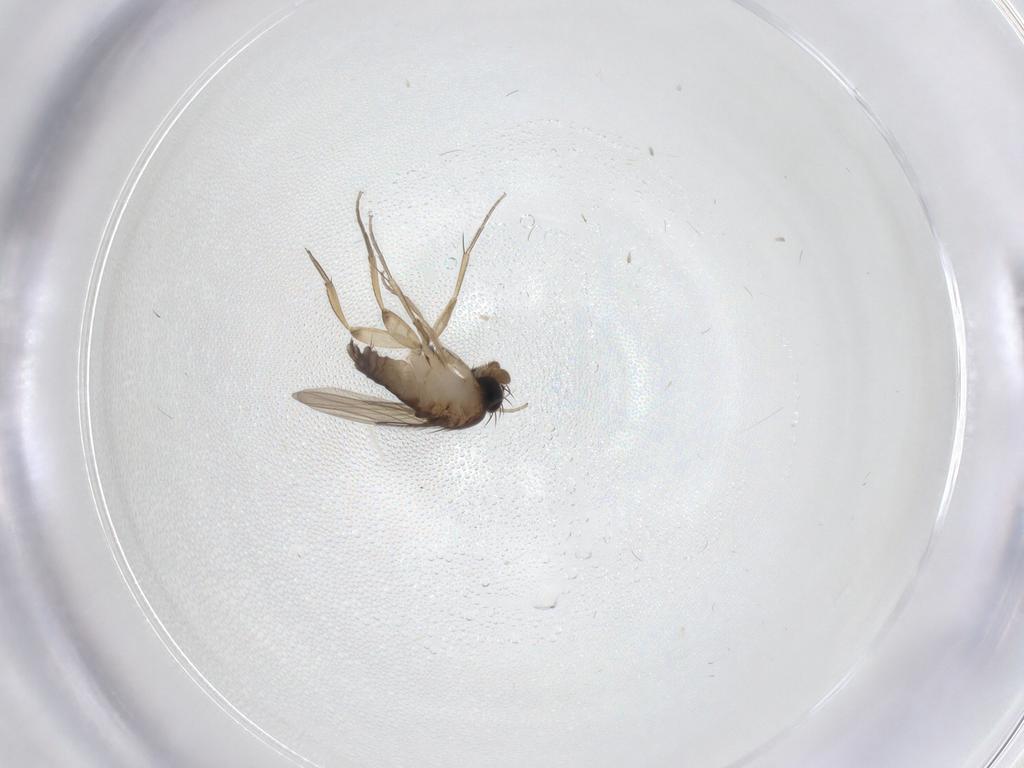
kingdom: Animalia
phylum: Arthropoda
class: Insecta
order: Diptera
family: Phoridae
